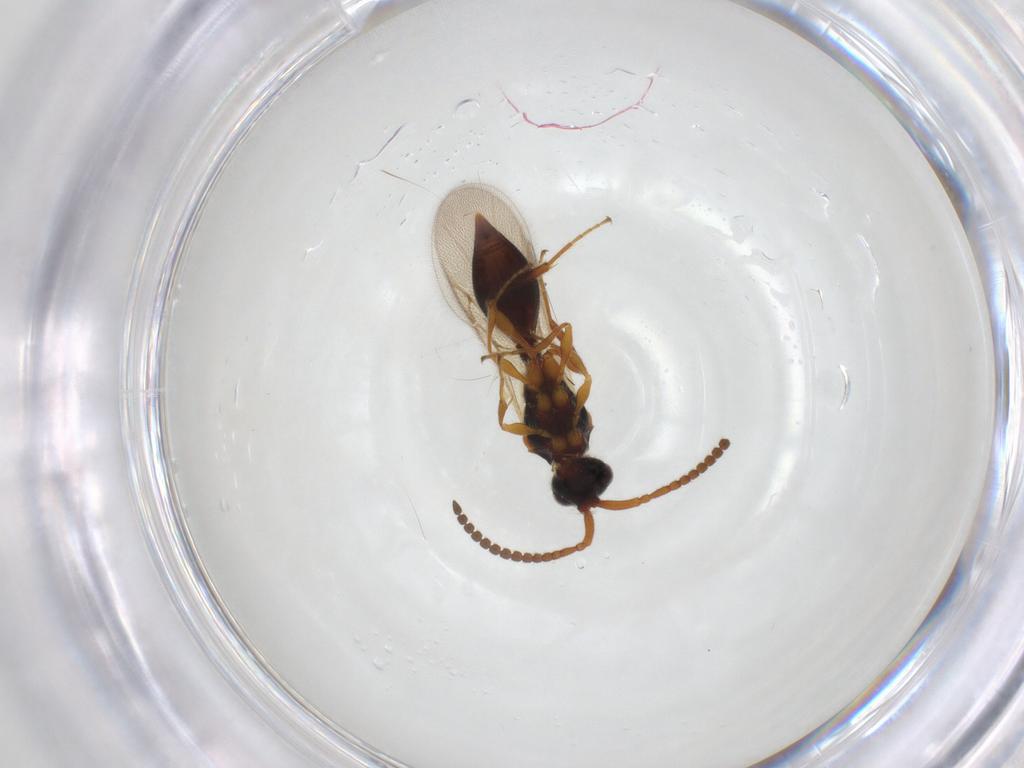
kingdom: Animalia
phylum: Arthropoda
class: Insecta
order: Hymenoptera
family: Diapriidae
